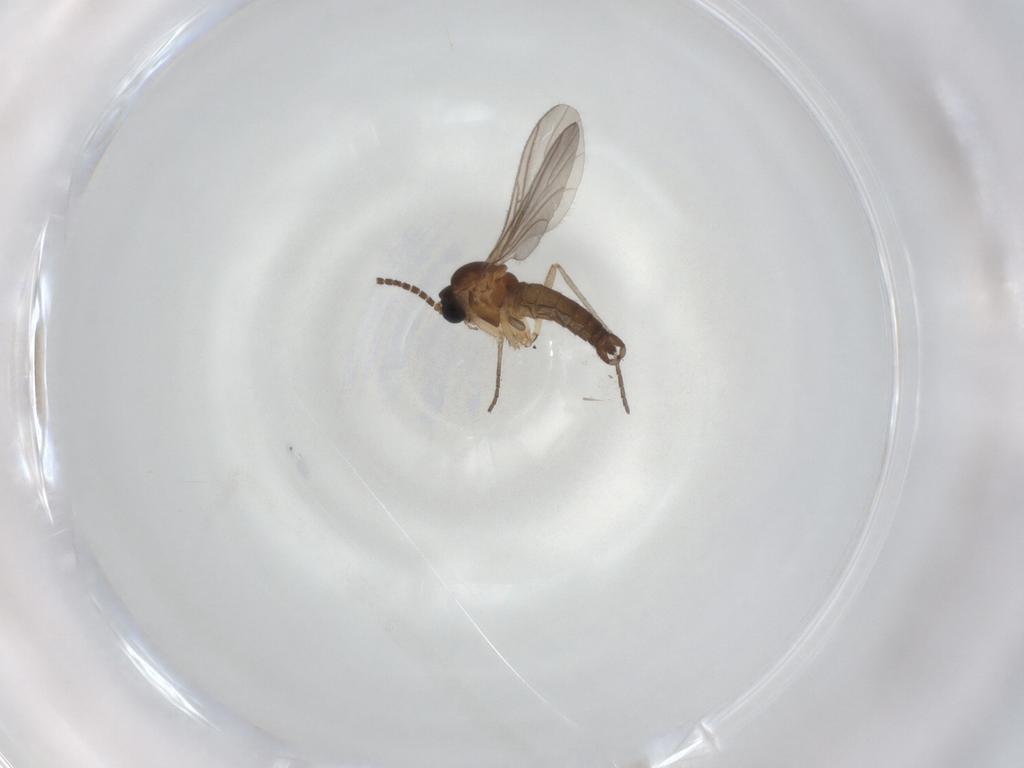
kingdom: Animalia
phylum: Arthropoda
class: Insecta
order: Diptera
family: Sciaridae
